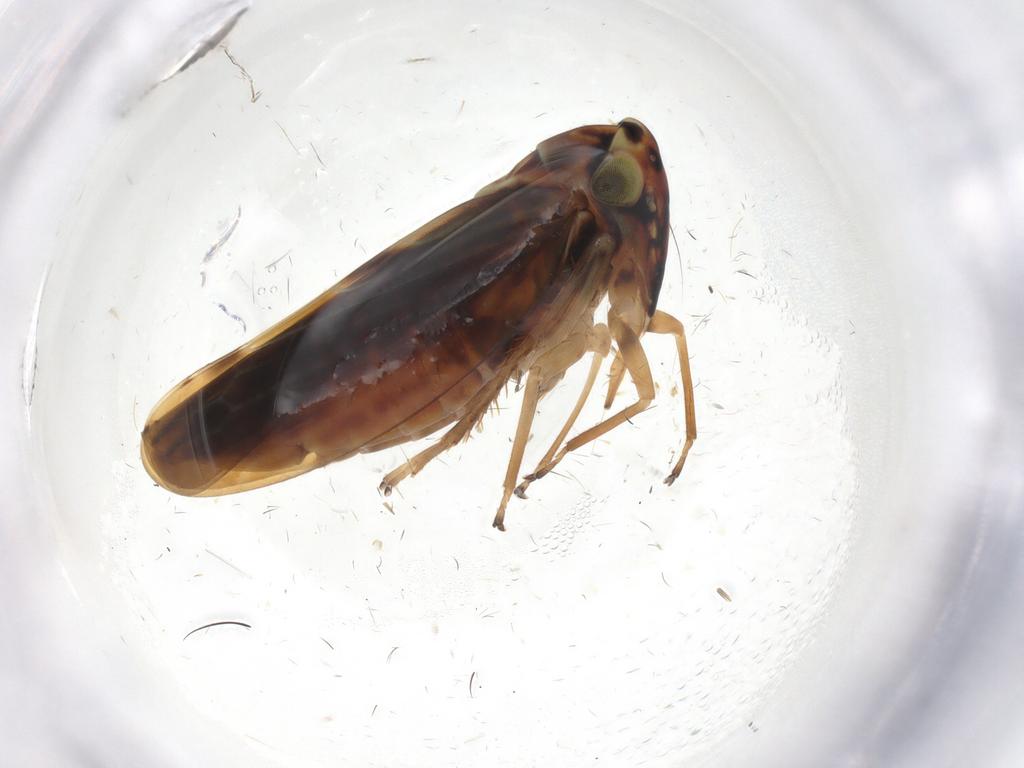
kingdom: Animalia
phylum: Arthropoda
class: Insecta
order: Hemiptera
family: Cicadellidae
